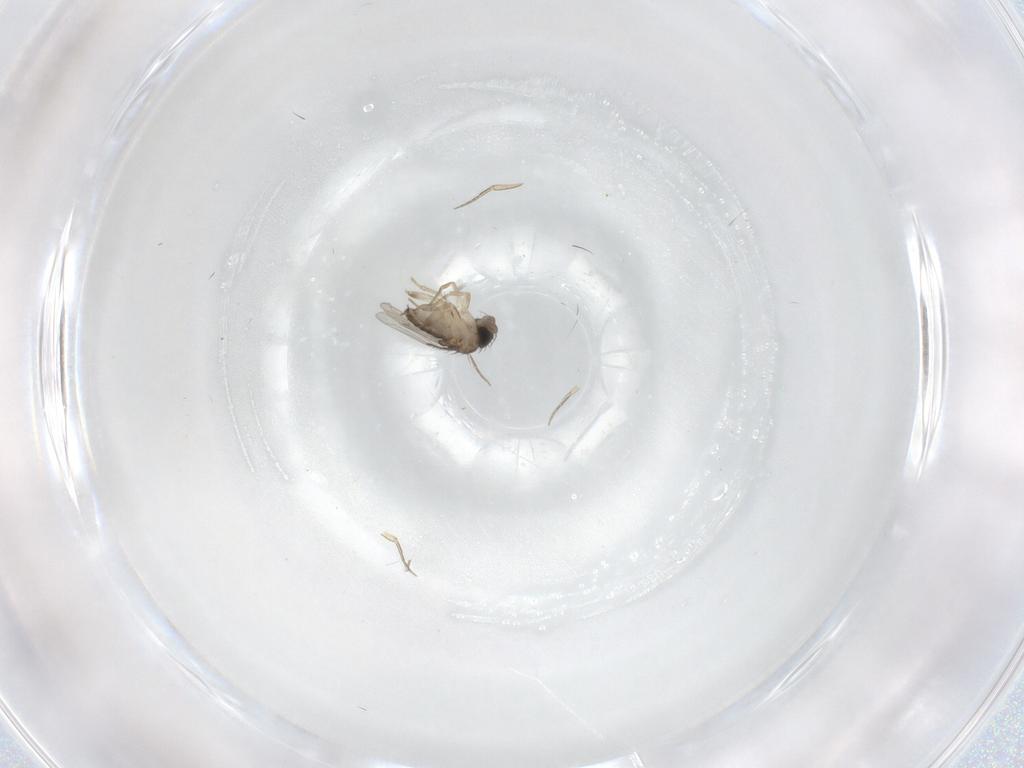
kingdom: Animalia
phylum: Arthropoda
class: Insecta
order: Diptera
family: Phoridae
